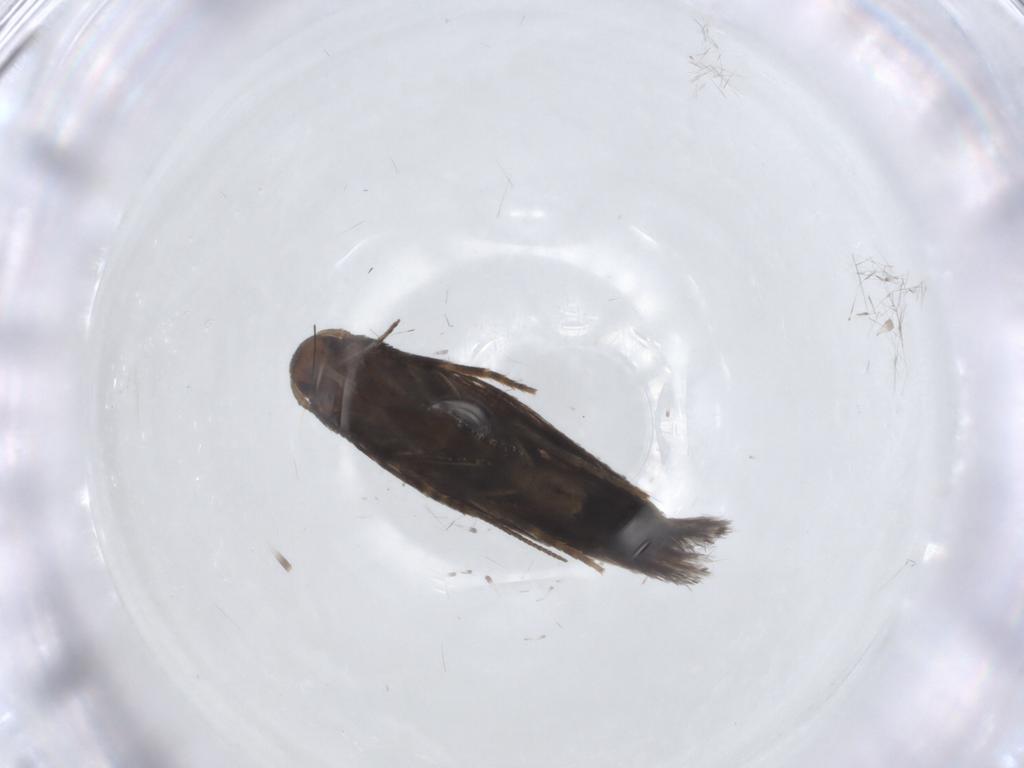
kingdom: Animalia
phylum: Arthropoda
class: Insecta
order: Lepidoptera
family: Elachistidae
